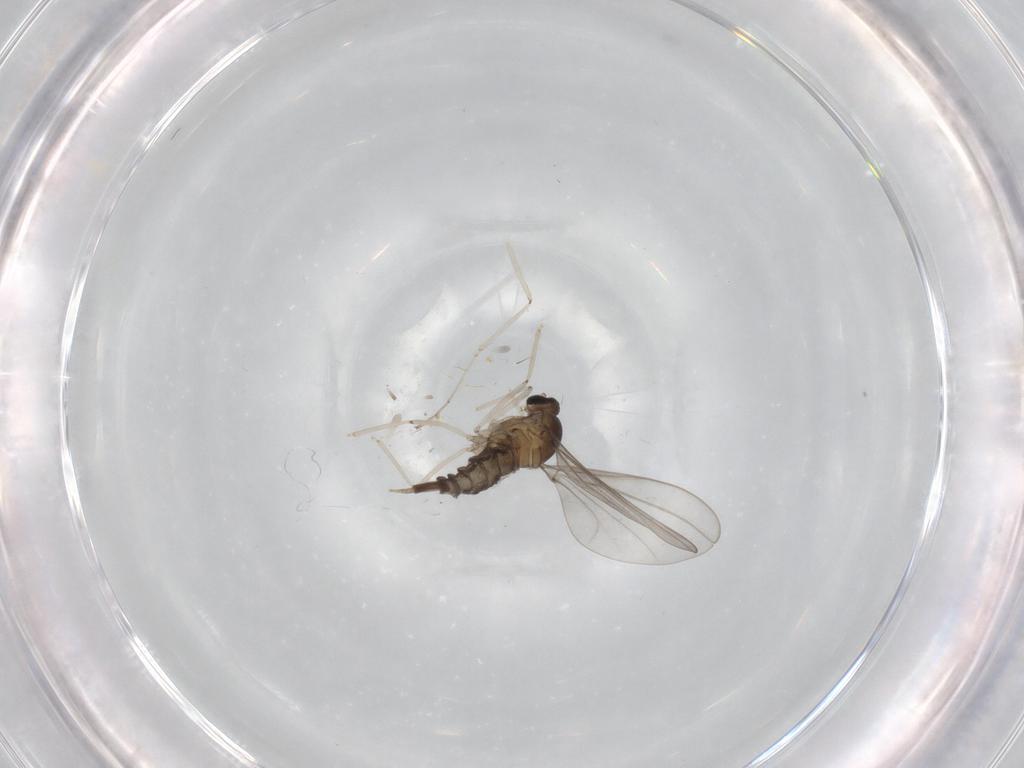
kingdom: Animalia
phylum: Arthropoda
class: Insecta
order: Diptera
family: Cecidomyiidae
